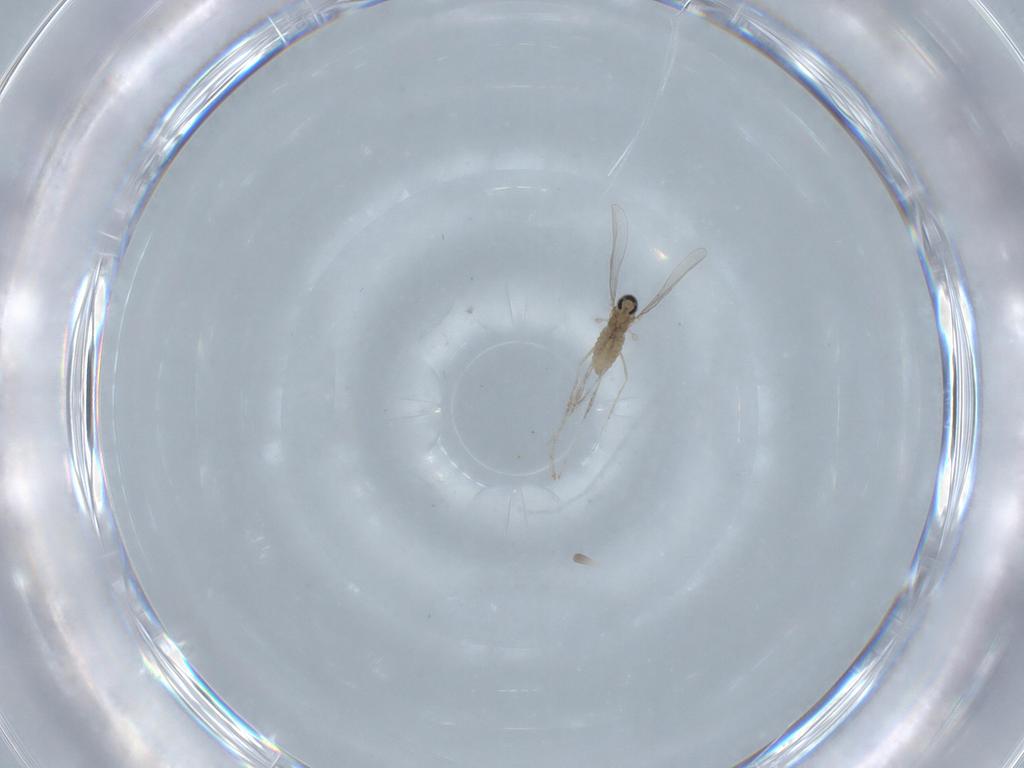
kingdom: Animalia
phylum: Arthropoda
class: Insecta
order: Diptera
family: Cecidomyiidae
